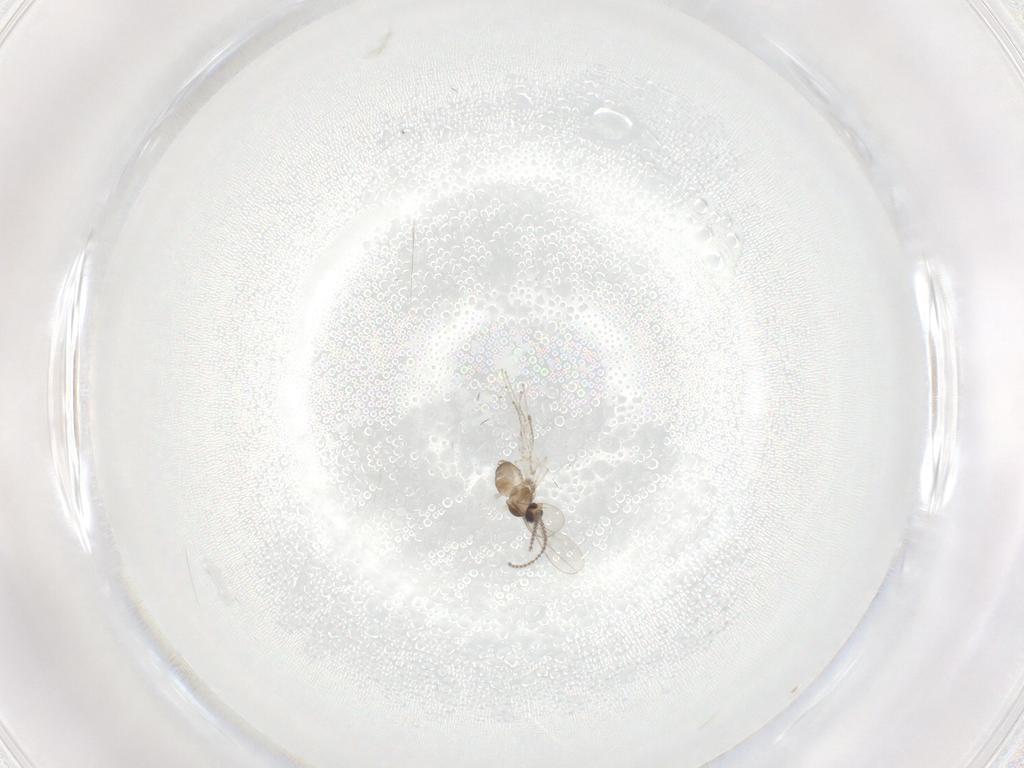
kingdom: Animalia
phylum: Arthropoda
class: Insecta
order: Diptera
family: Cecidomyiidae
